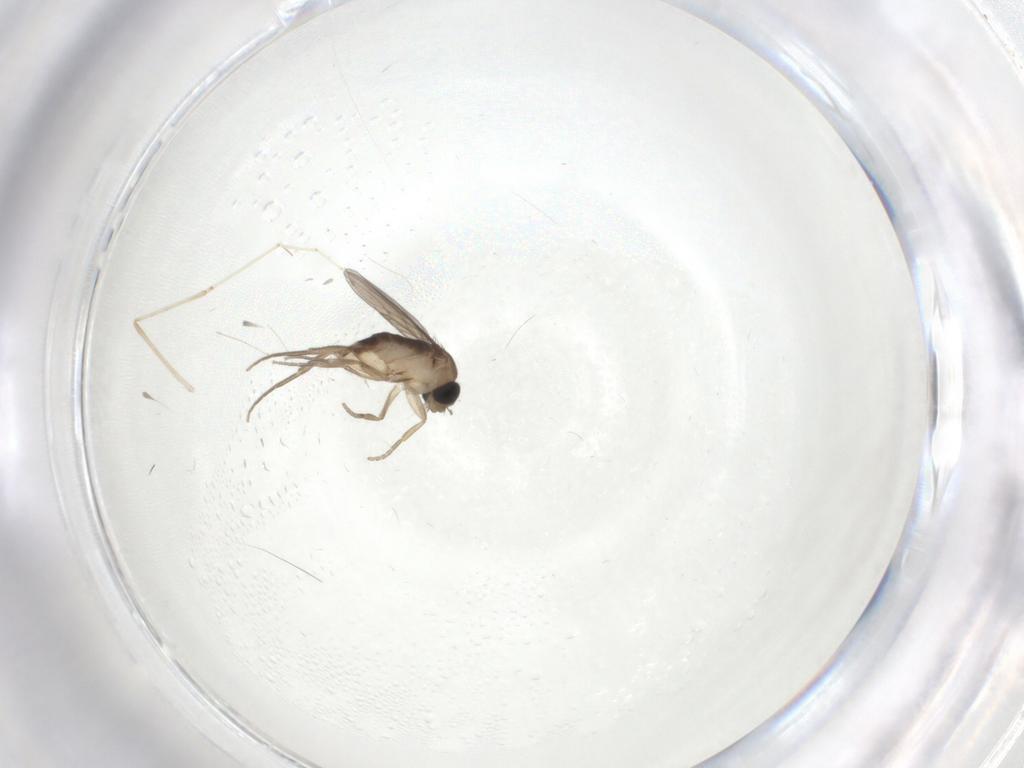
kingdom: Animalia
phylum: Arthropoda
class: Insecta
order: Diptera
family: Phoridae
